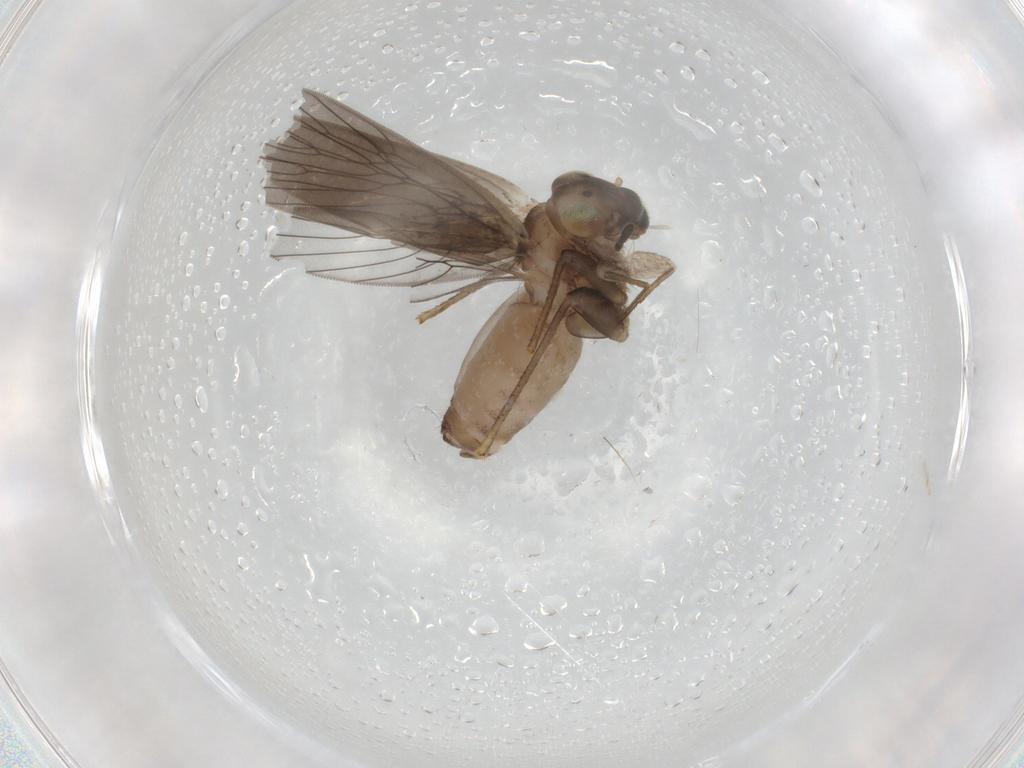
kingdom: Animalia
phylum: Arthropoda
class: Insecta
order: Psocodea
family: Lepidopsocidae
